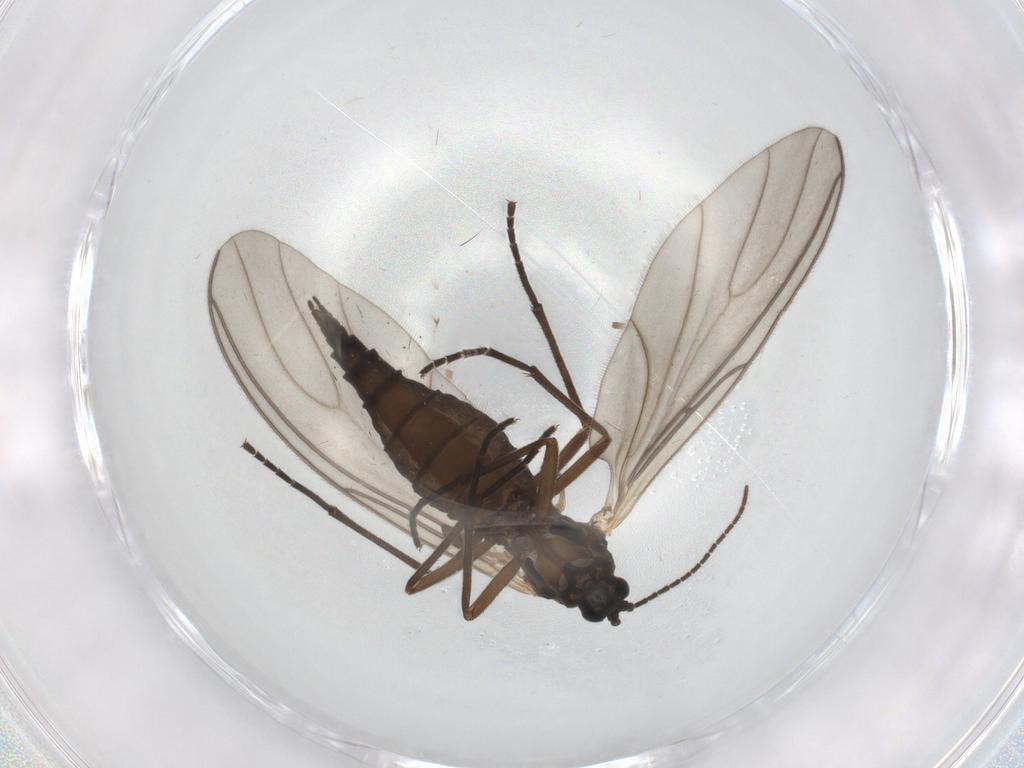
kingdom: Animalia
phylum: Arthropoda
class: Insecta
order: Diptera
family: Sciaridae
